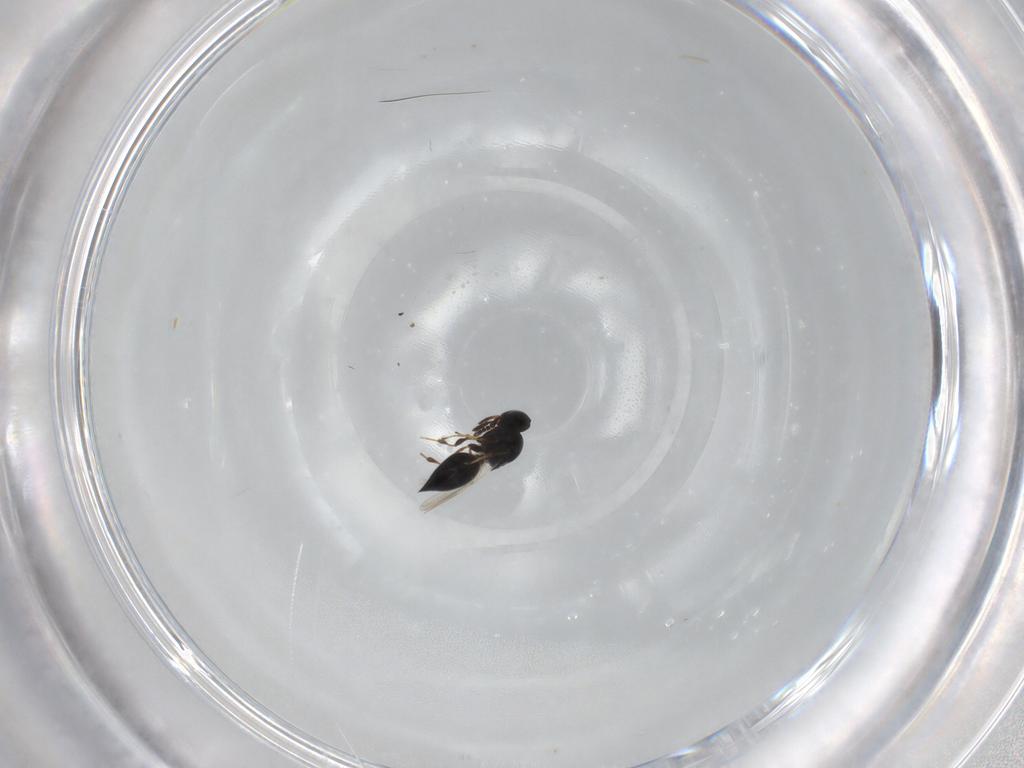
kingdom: Animalia
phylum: Arthropoda
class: Insecta
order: Hymenoptera
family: Platygastridae
